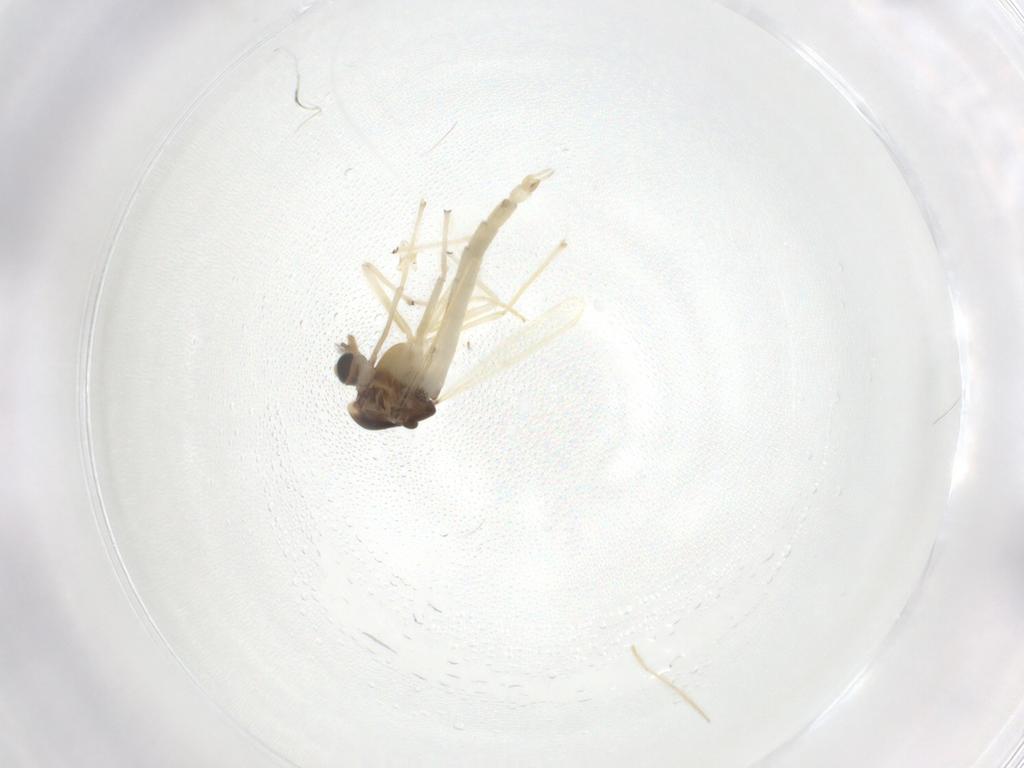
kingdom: Animalia
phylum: Arthropoda
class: Insecta
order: Diptera
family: Chironomidae
